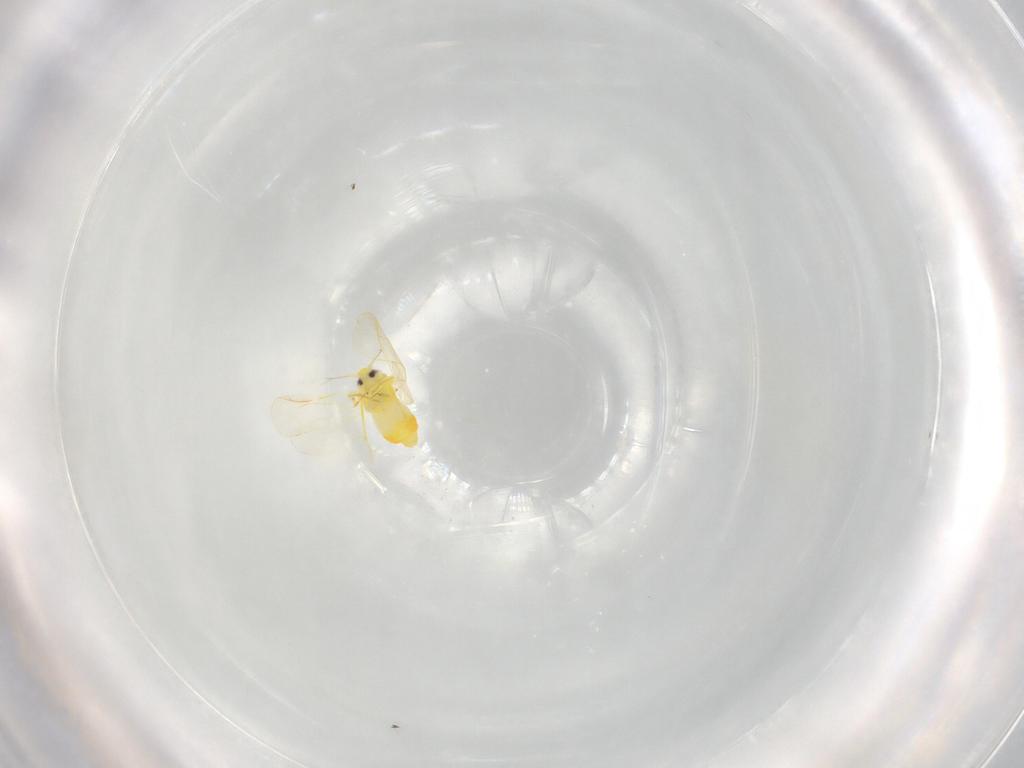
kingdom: Animalia
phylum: Arthropoda
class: Insecta
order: Hemiptera
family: Aleyrodidae
